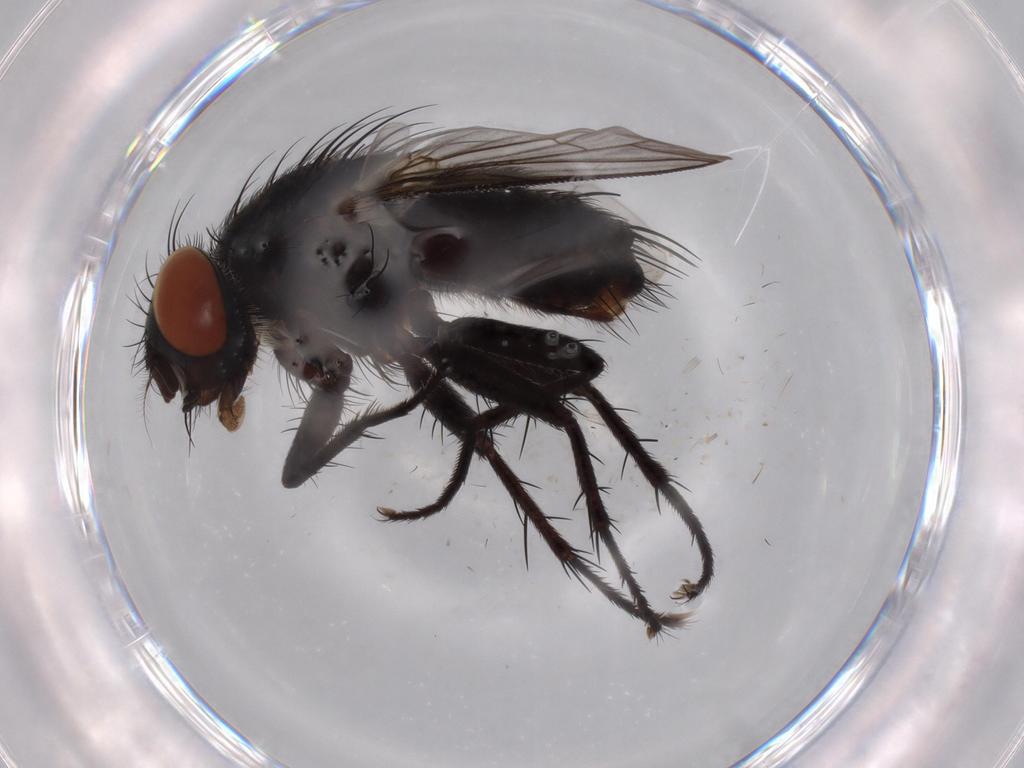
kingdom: Animalia
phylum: Arthropoda
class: Insecta
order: Diptera
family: Sarcophagidae
